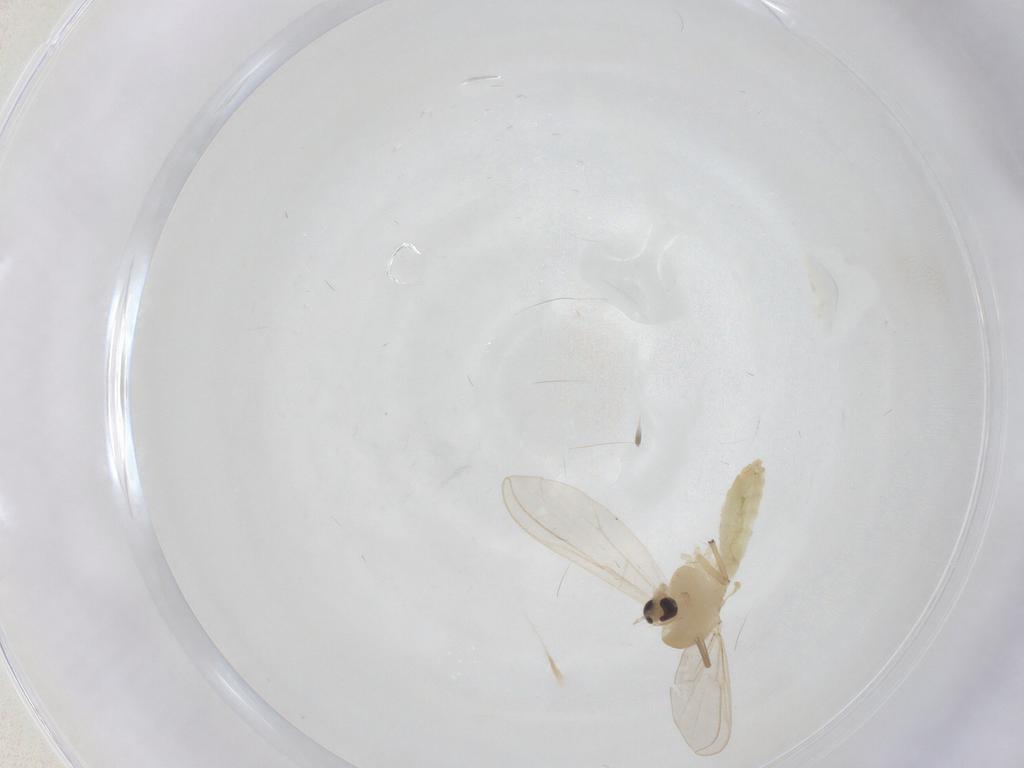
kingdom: Animalia
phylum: Arthropoda
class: Insecta
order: Diptera
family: Chironomidae
